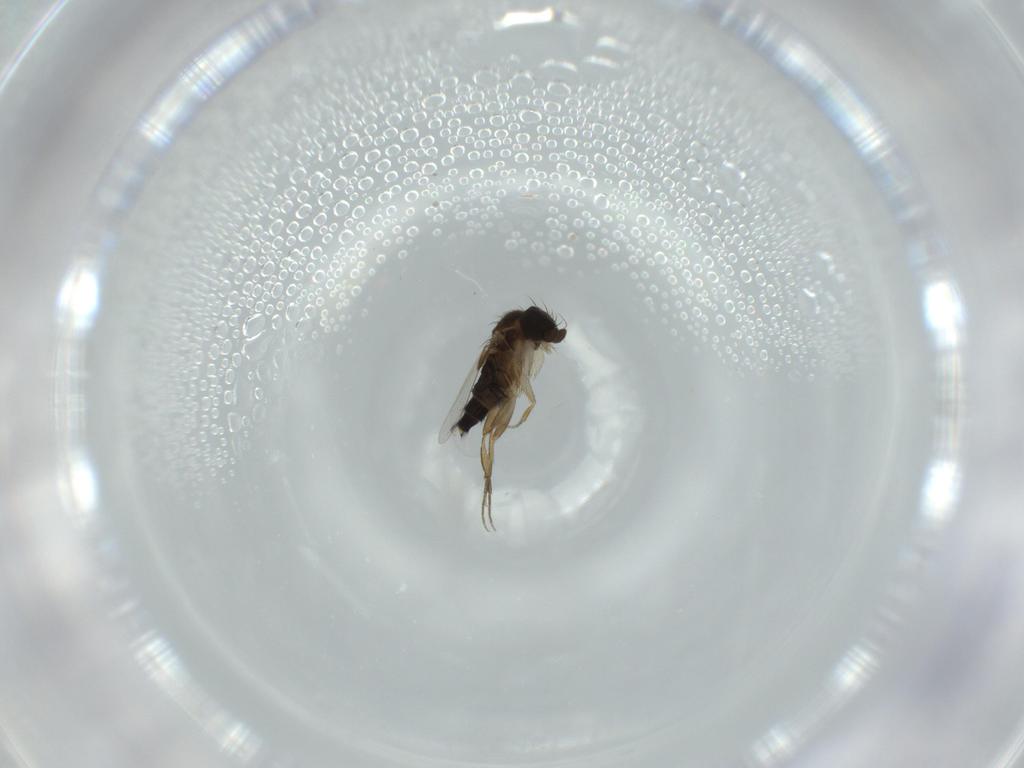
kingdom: Animalia
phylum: Arthropoda
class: Insecta
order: Diptera
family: Phoridae
